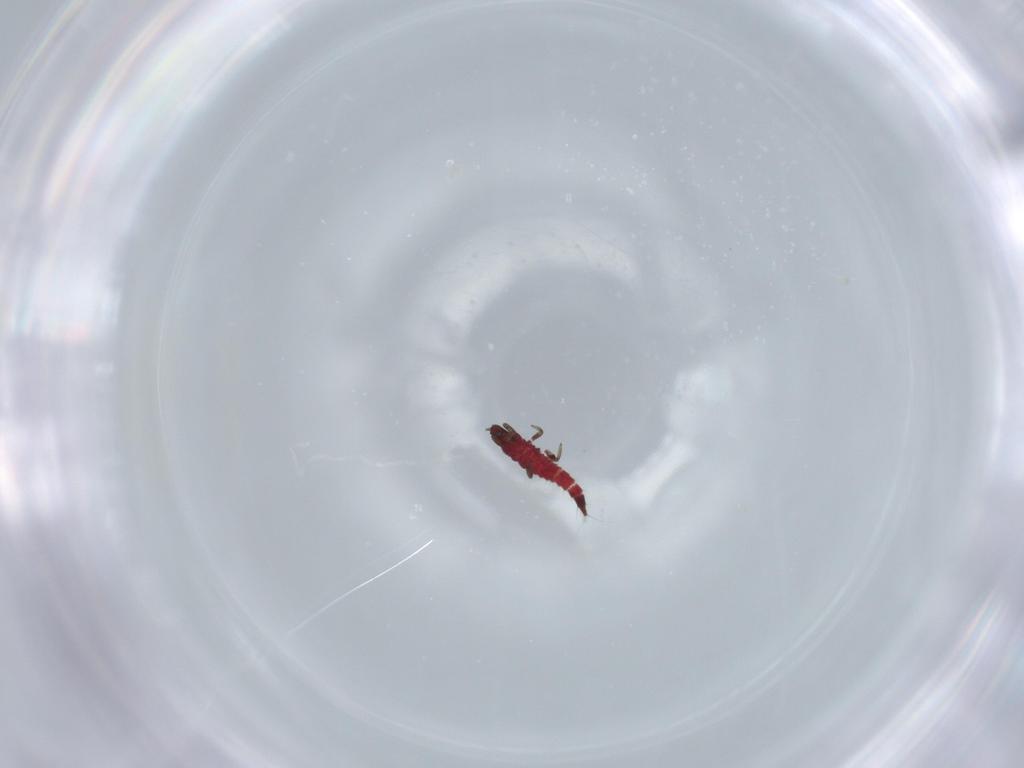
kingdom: Animalia
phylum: Arthropoda
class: Insecta
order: Thysanoptera
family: Phlaeothripidae
